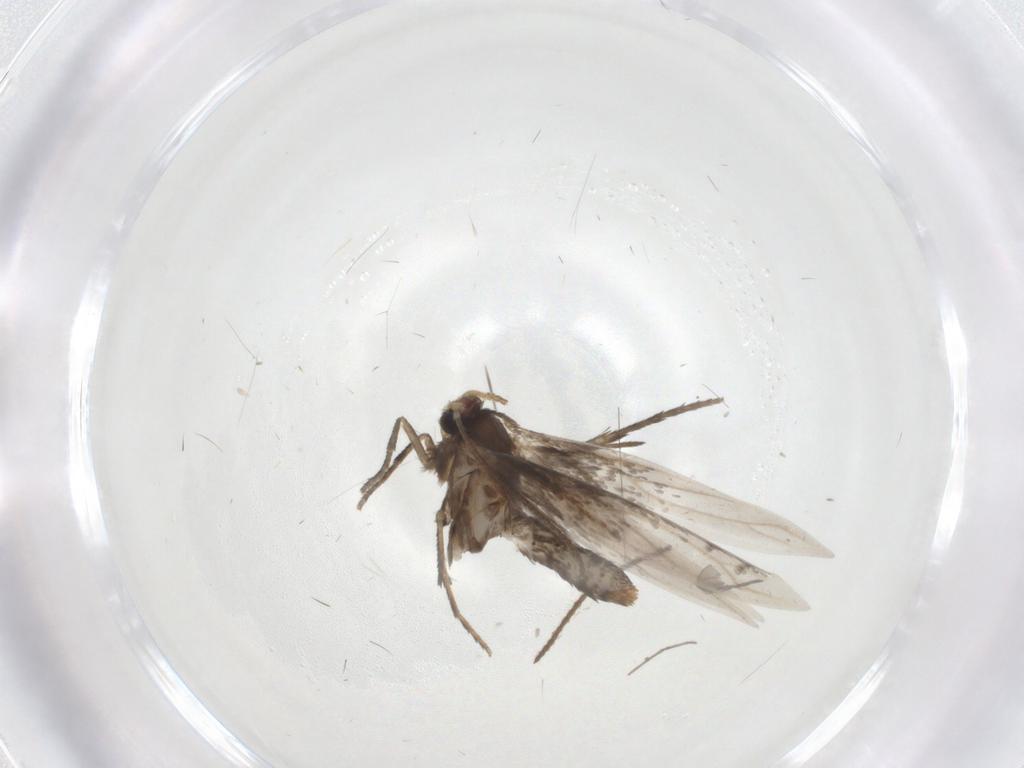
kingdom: Animalia
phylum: Arthropoda
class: Insecta
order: Lepidoptera
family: Nepticulidae
